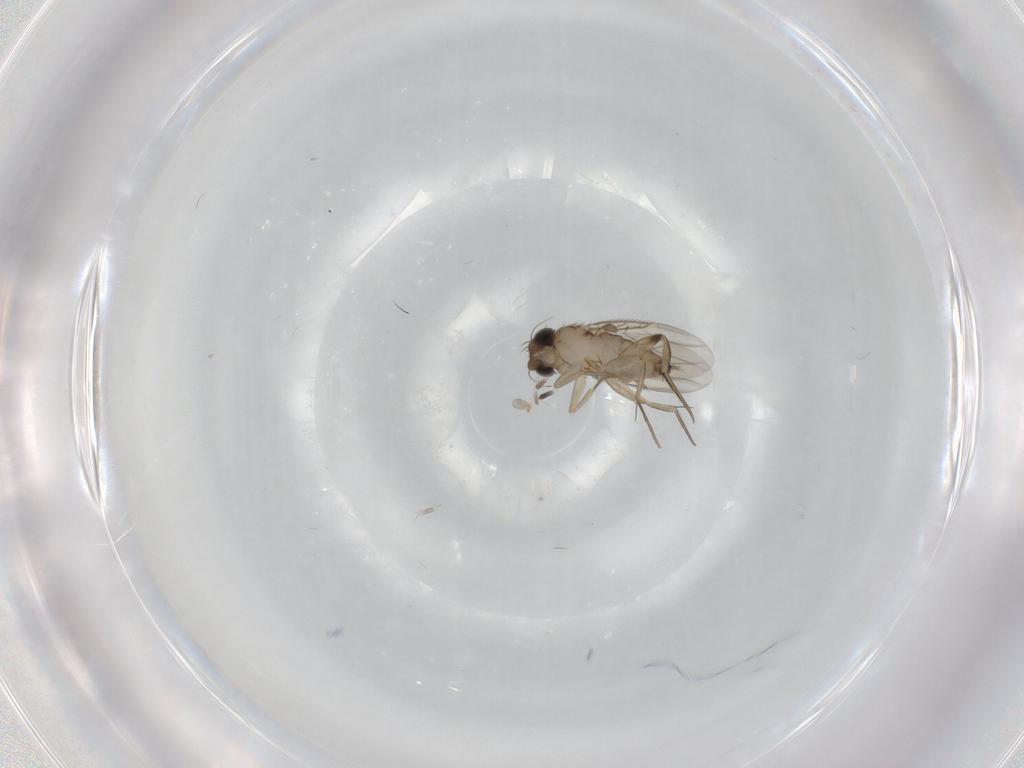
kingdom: Animalia
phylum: Arthropoda
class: Insecta
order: Diptera
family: Phoridae
